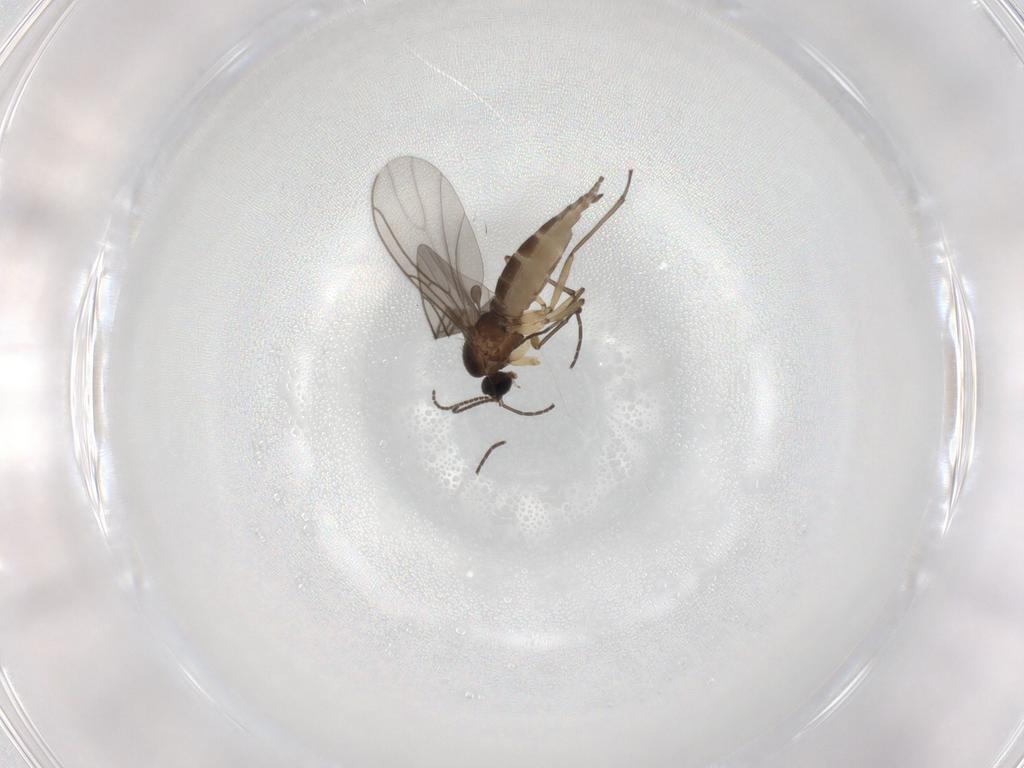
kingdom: Animalia
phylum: Arthropoda
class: Insecta
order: Diptera
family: Sciaridae
